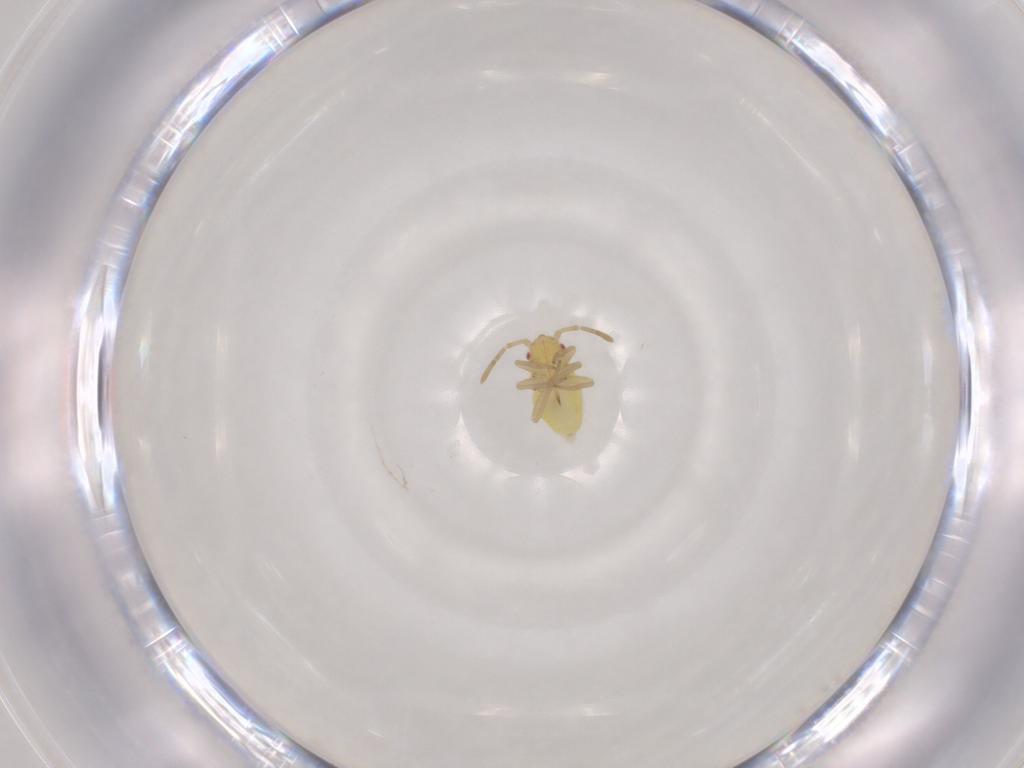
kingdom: Animalia
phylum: Arthropoda
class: Insecta
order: Hemiptera
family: Miridae
